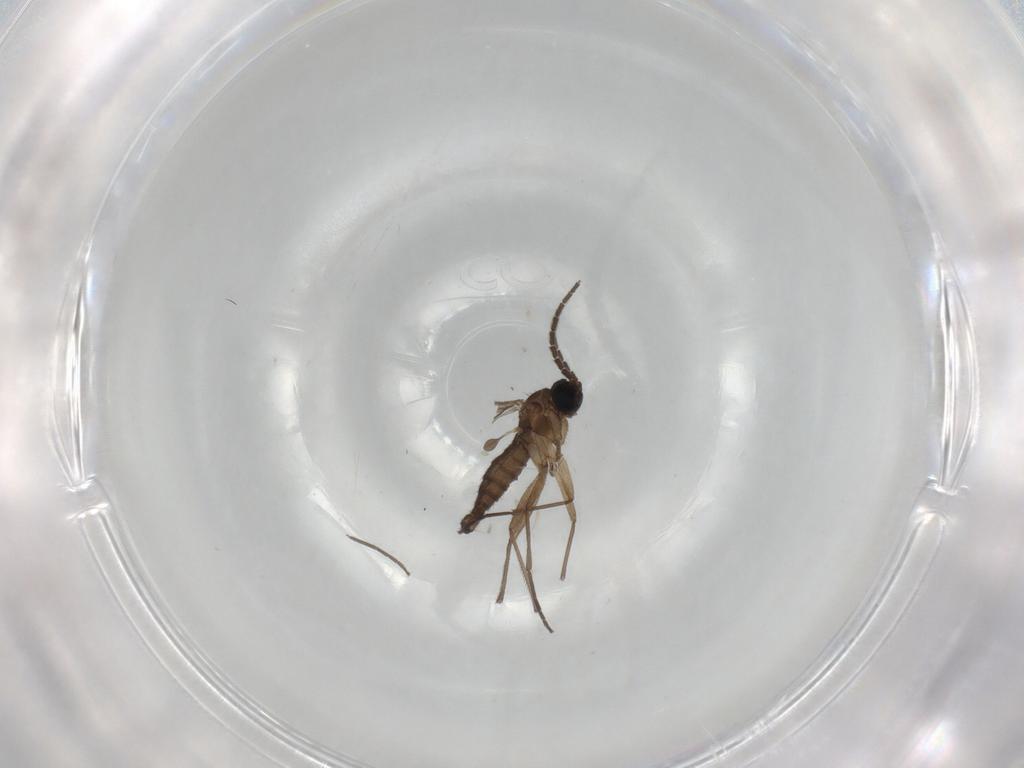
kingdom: Animalia
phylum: Arthropoda
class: Insecta
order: Diptera
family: Sciaridae
